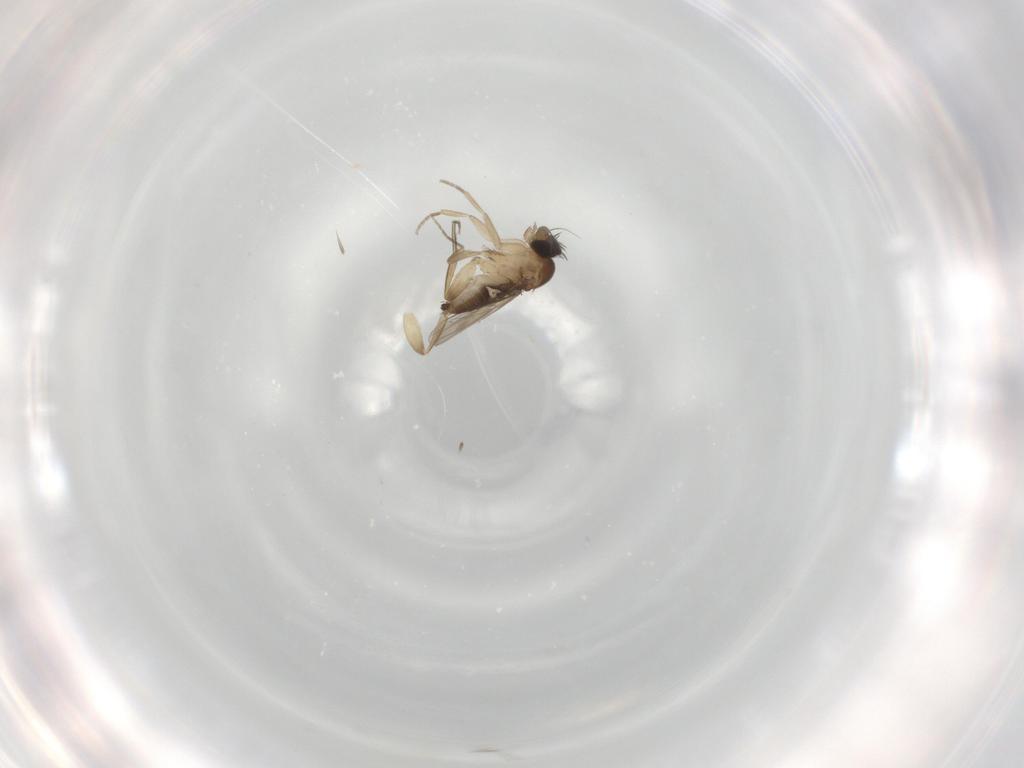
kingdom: Animalia
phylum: Arthropoda
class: Insecta
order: Diptera
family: Phoridae
